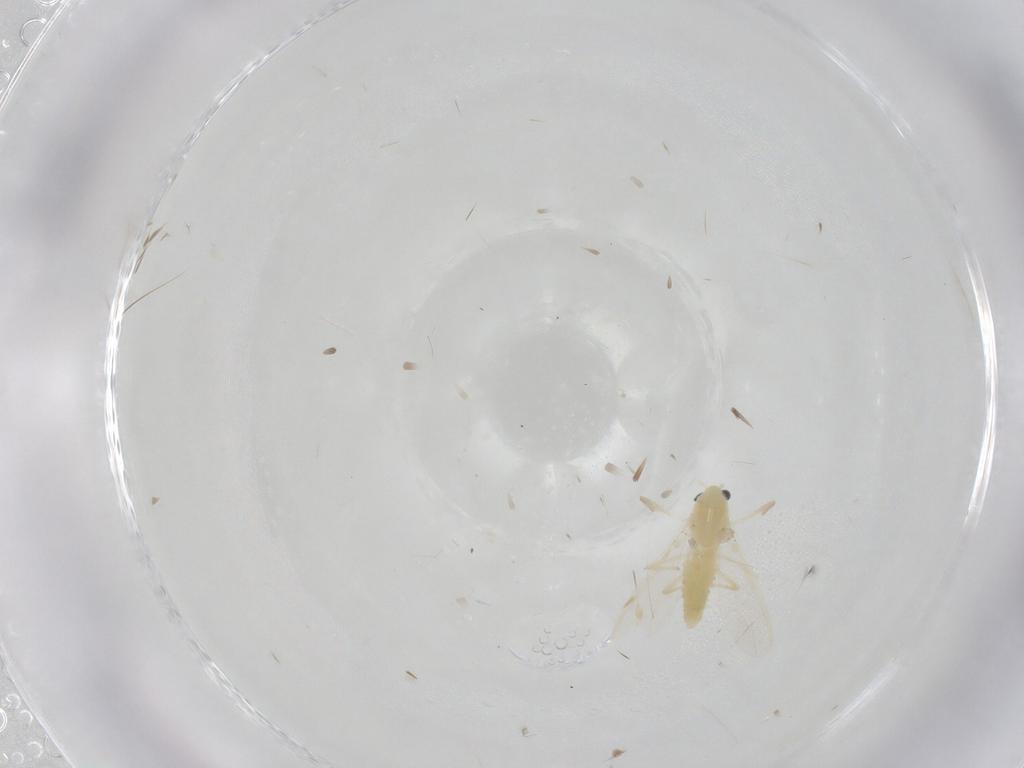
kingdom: Animalia
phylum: Arthropoda
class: Insecta
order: Diptera
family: Chironomidae
